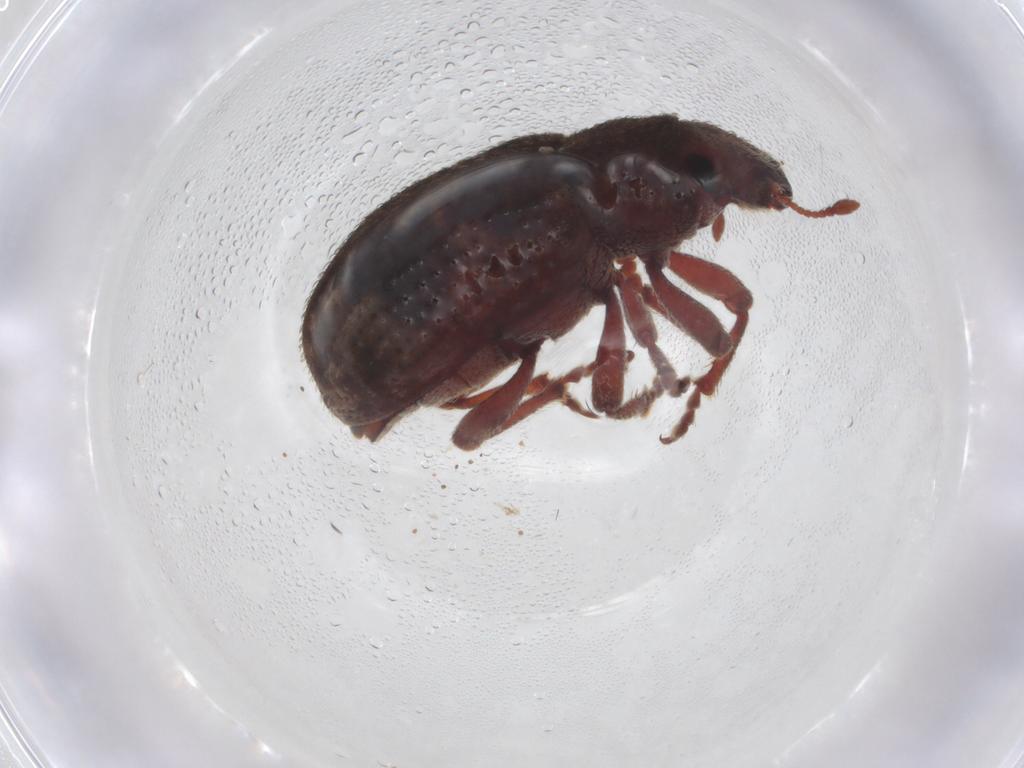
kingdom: Animalia
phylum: Arthropoda
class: Insecta
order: Coleoptera
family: Chrysomelidae
